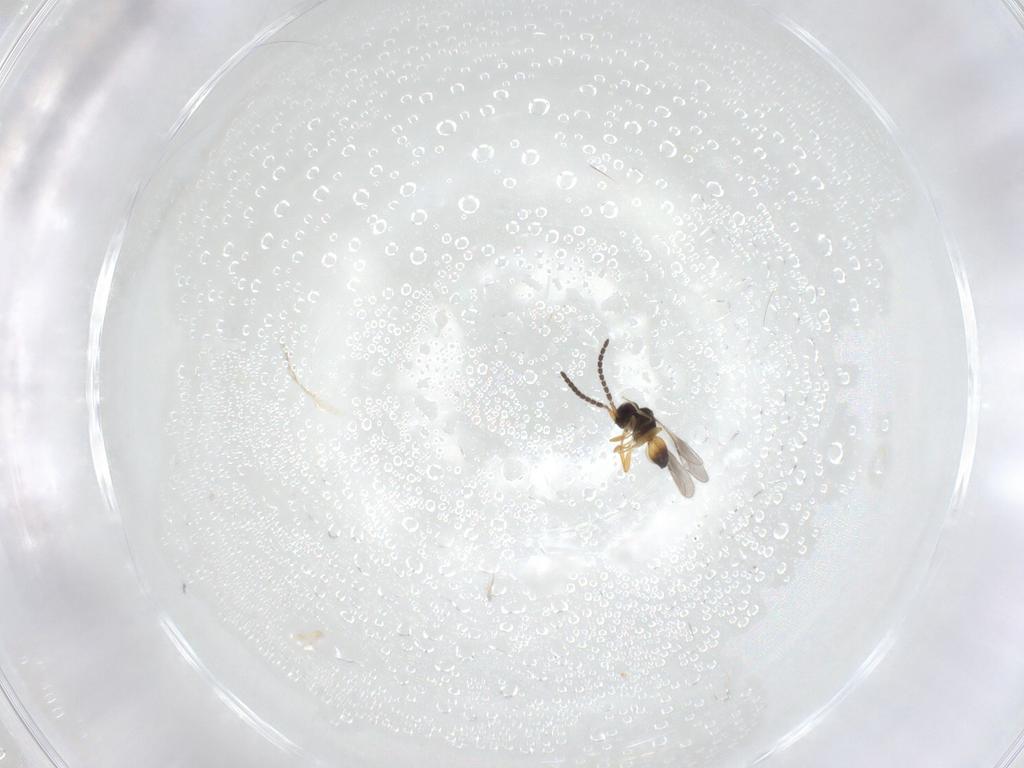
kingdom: Animalia
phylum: Arthropoda
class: Insecta
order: Hymenoptera
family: Ceraphronidae
